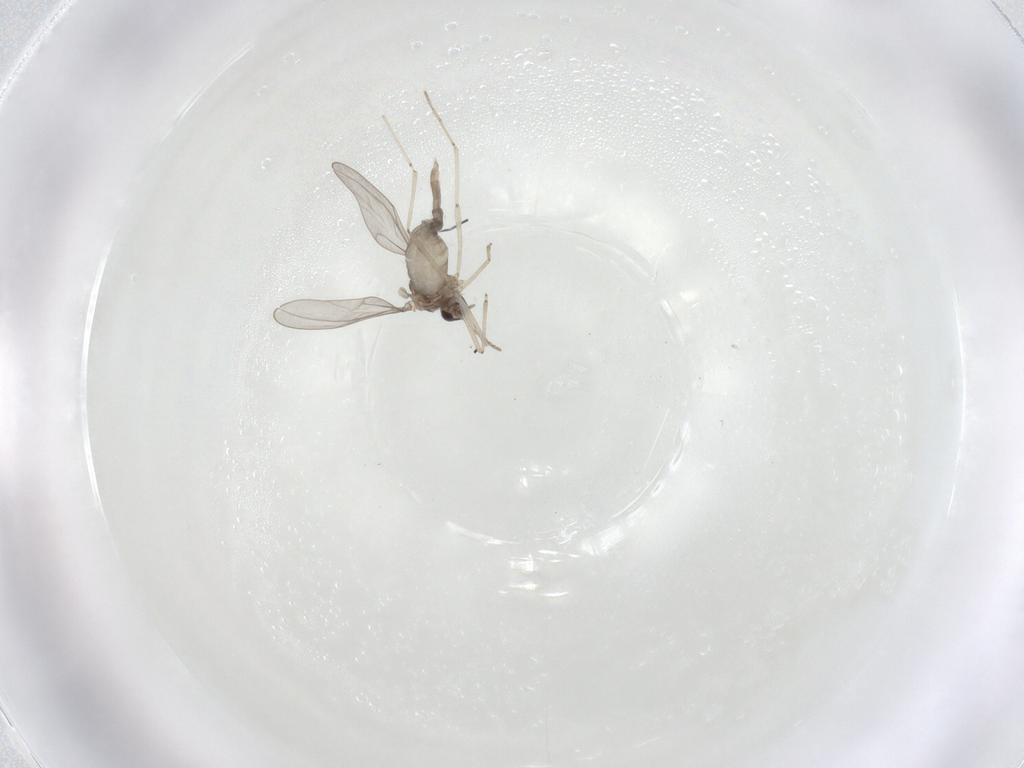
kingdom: Animalia
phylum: Arthropoda
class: Insecta
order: Diptera
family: Cecidomyiidae
